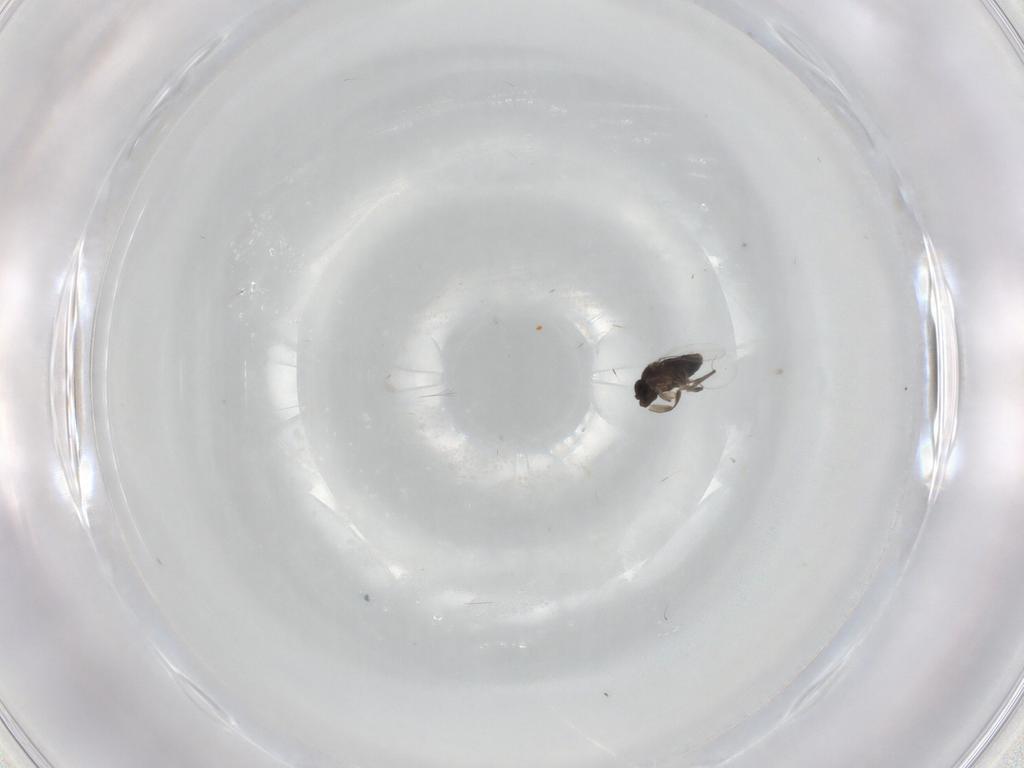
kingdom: Animalia
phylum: Arthropoda
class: Insecta
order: Diptera
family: Phoridae
